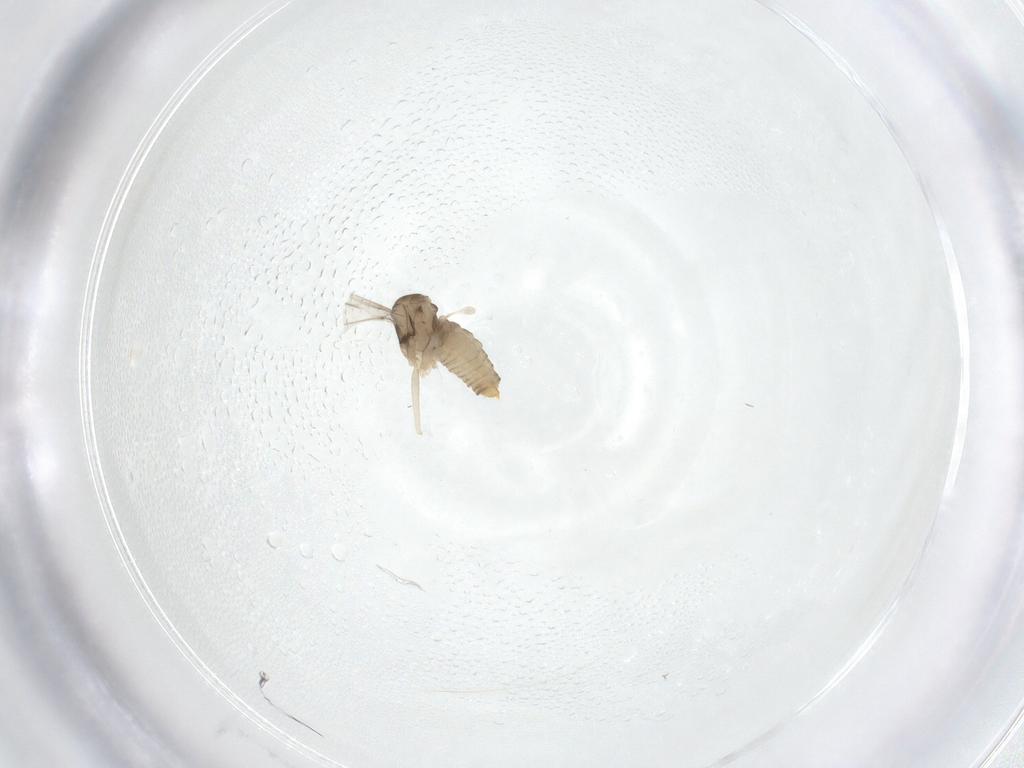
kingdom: Animalia
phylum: Arthropoda
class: Insecta
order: Diptera
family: Cecidomyiidae
